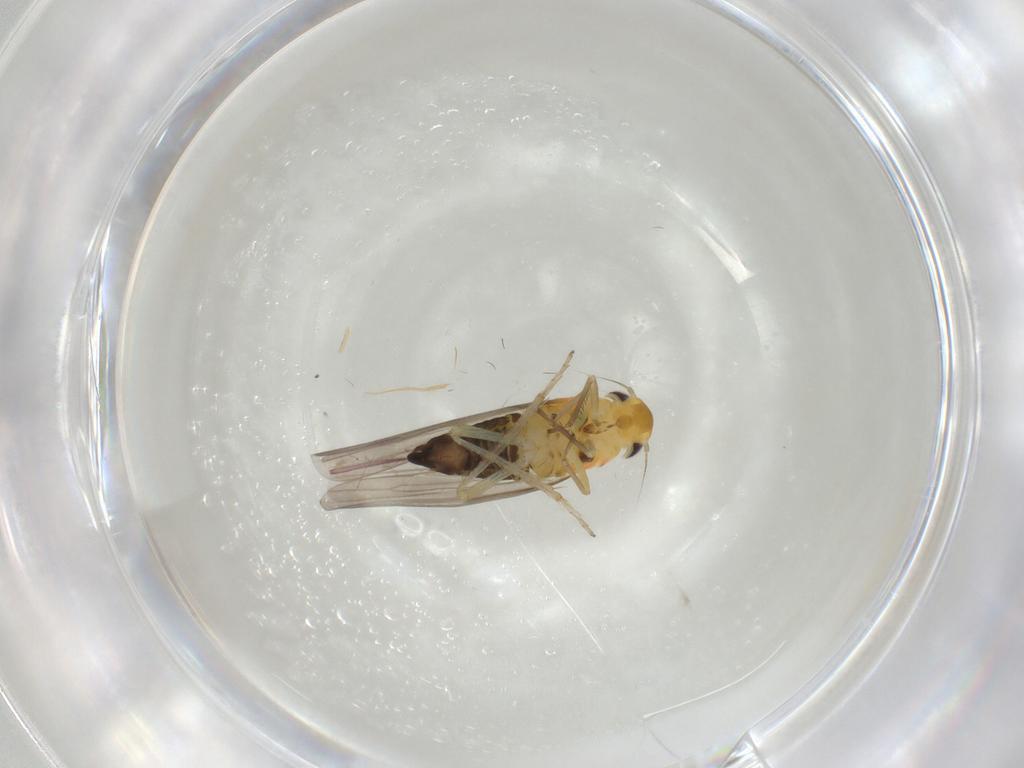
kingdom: Animalia
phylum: Arthropoda
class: Insecta
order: Hemiptera
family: Cicadellidae
